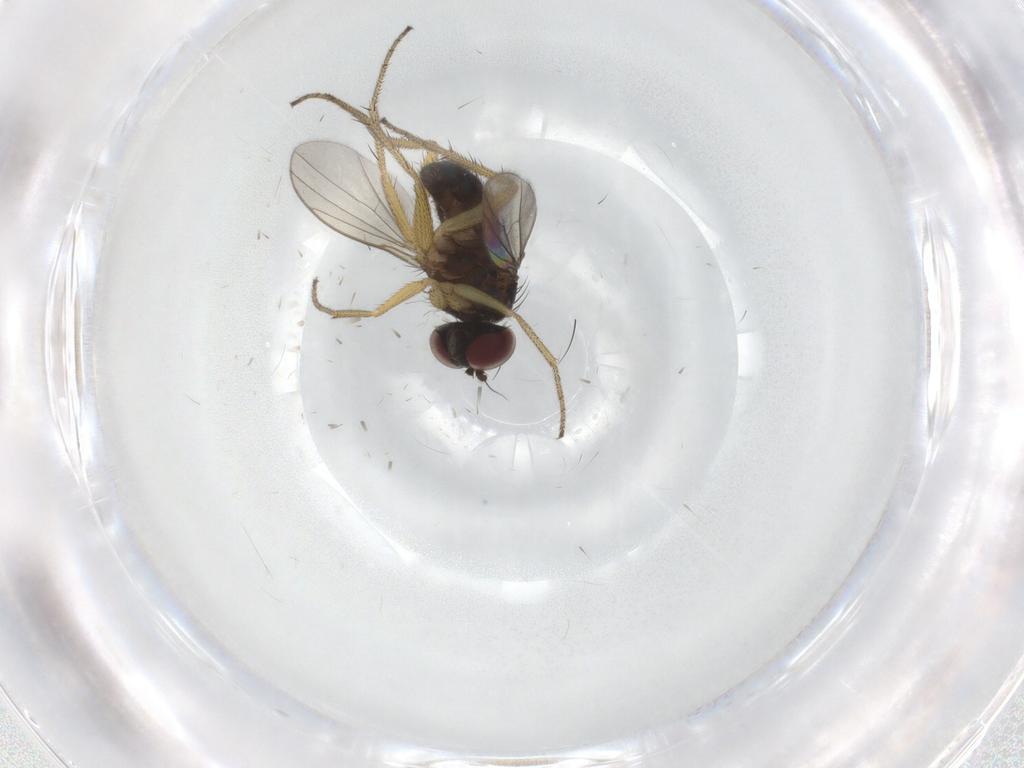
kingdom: Animalia
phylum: Arthropoda
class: Insecta
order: Diptera
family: Dolichopodidae
